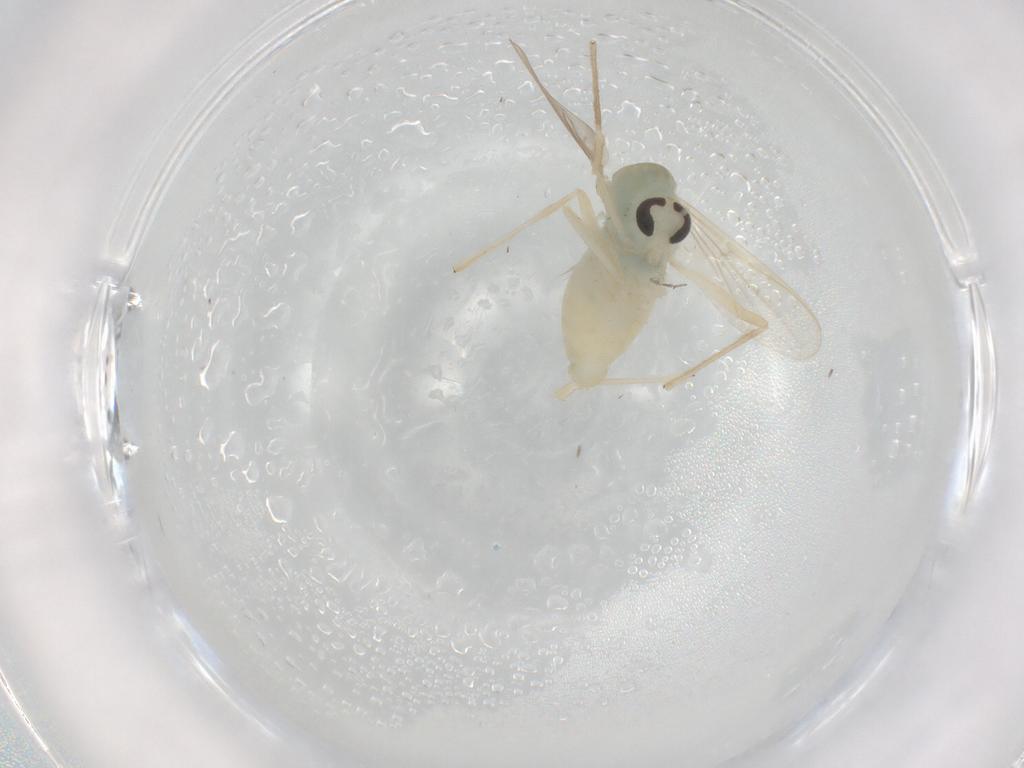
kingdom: Animalia
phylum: Arthropoda
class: Insecta
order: Diptera
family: Chironomidae
